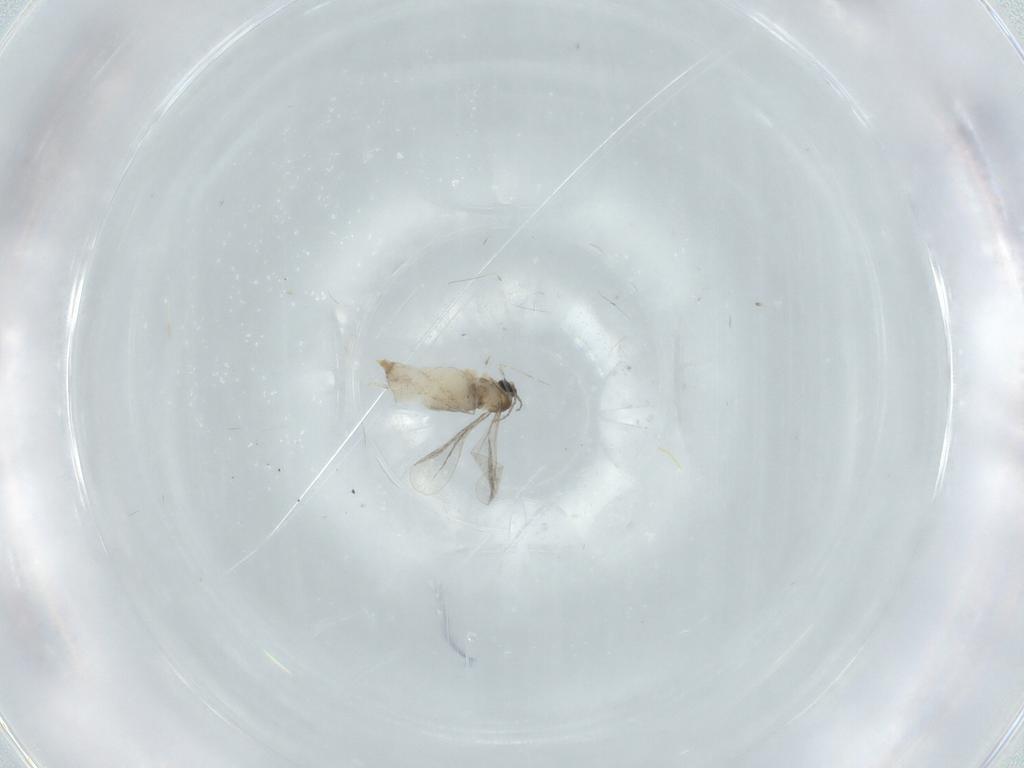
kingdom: Animalia
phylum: Arthropoda
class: Insecta
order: Diptera
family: Chironomidae
